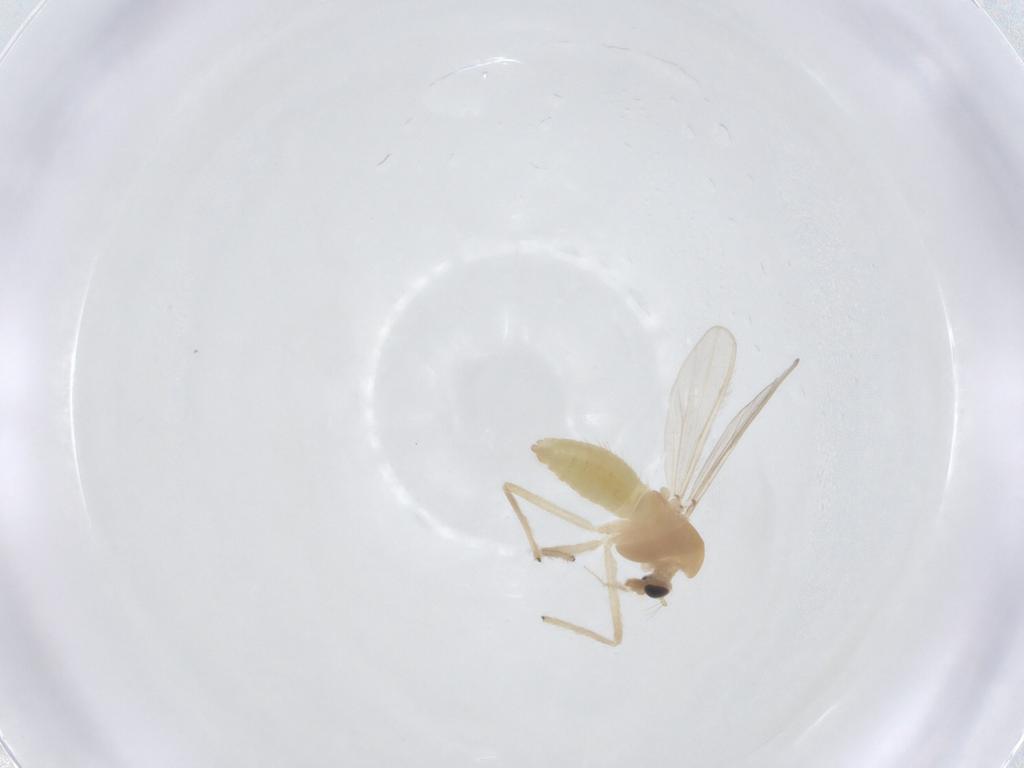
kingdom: Animalia
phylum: Arthropoda
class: Insecta
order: Diptera
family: Chironomidae
